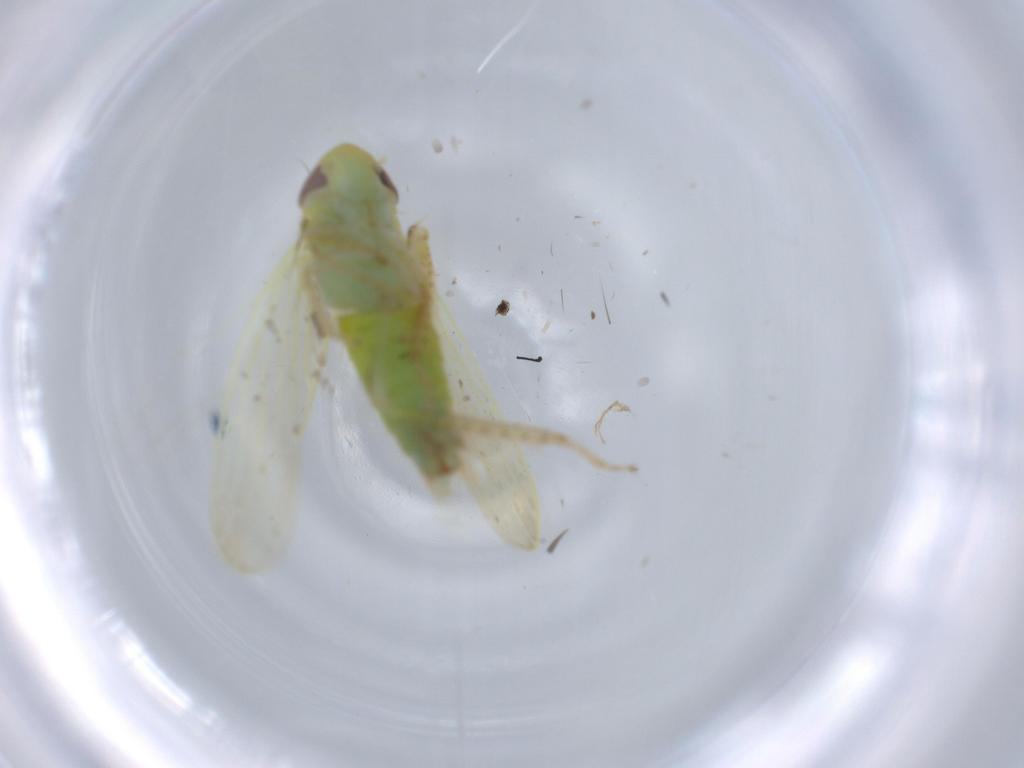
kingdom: Animalia
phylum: Arthropoda
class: Insecta
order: Hemiptera
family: Cicadellidae
